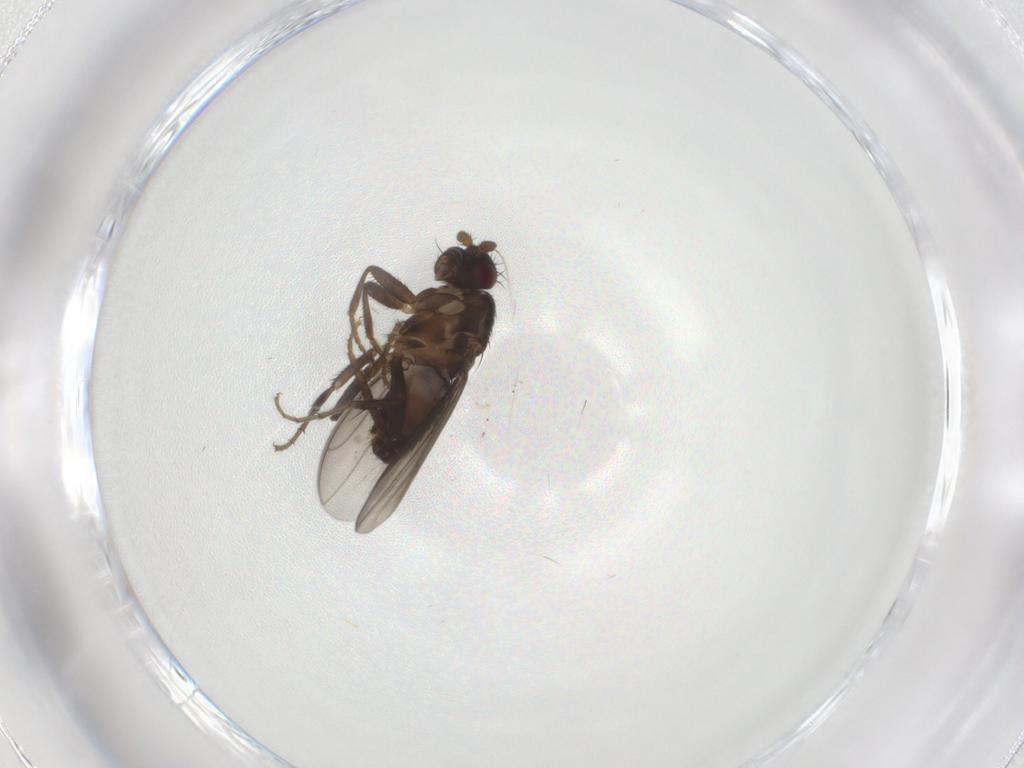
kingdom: Animalia
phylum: Arthropoda
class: Insecta
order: Diptera
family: Sphaeroceridae
